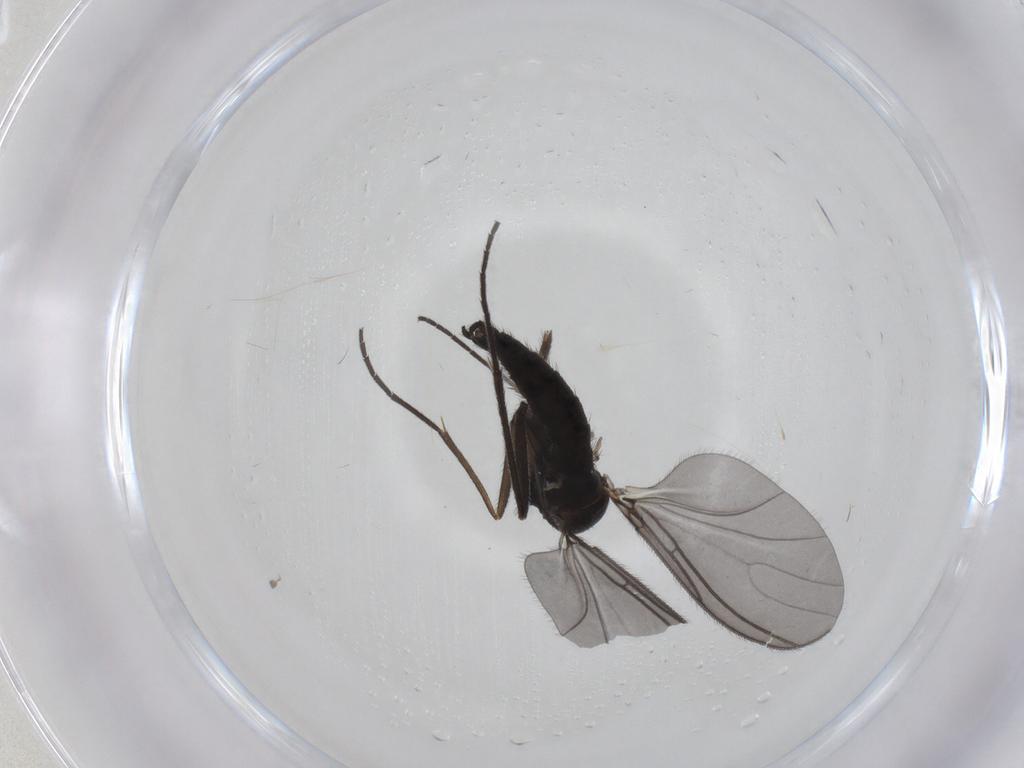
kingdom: Animalia
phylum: Arthropoda
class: Insecta
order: Diptera
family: Sciaridae
